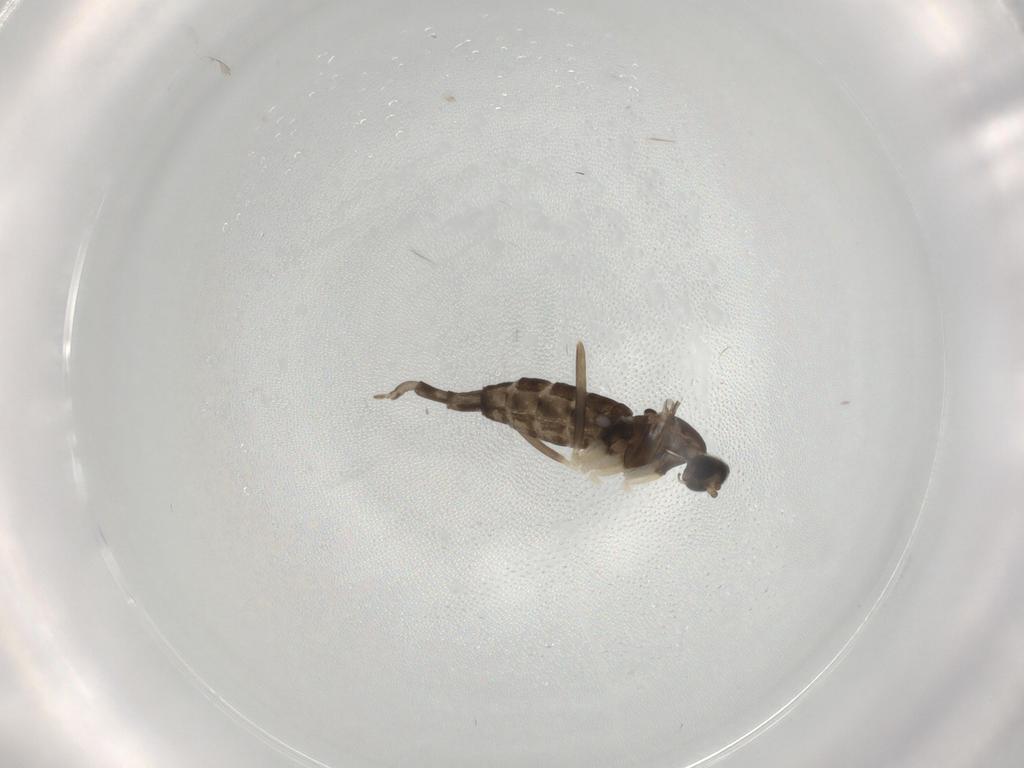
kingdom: Animalia
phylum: Arthropoda
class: Insecta
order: Diptera
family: Cecidomyiidae
